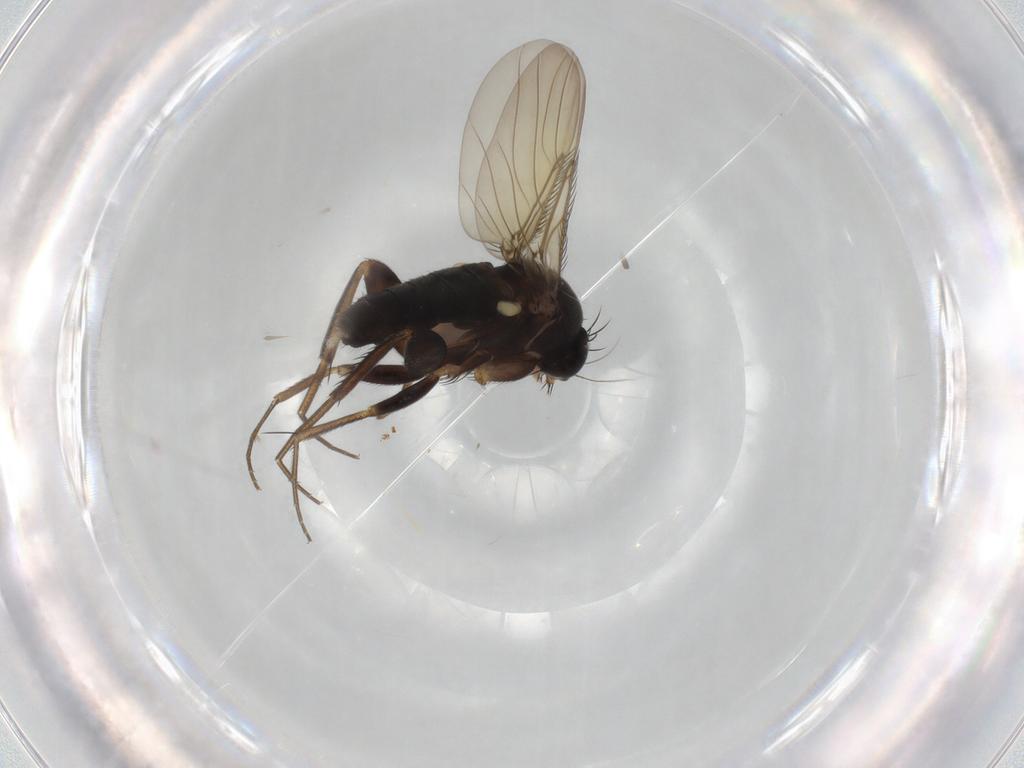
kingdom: Animalia
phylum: Arthropoda
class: Insecta
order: Diptera
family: Phoridae
